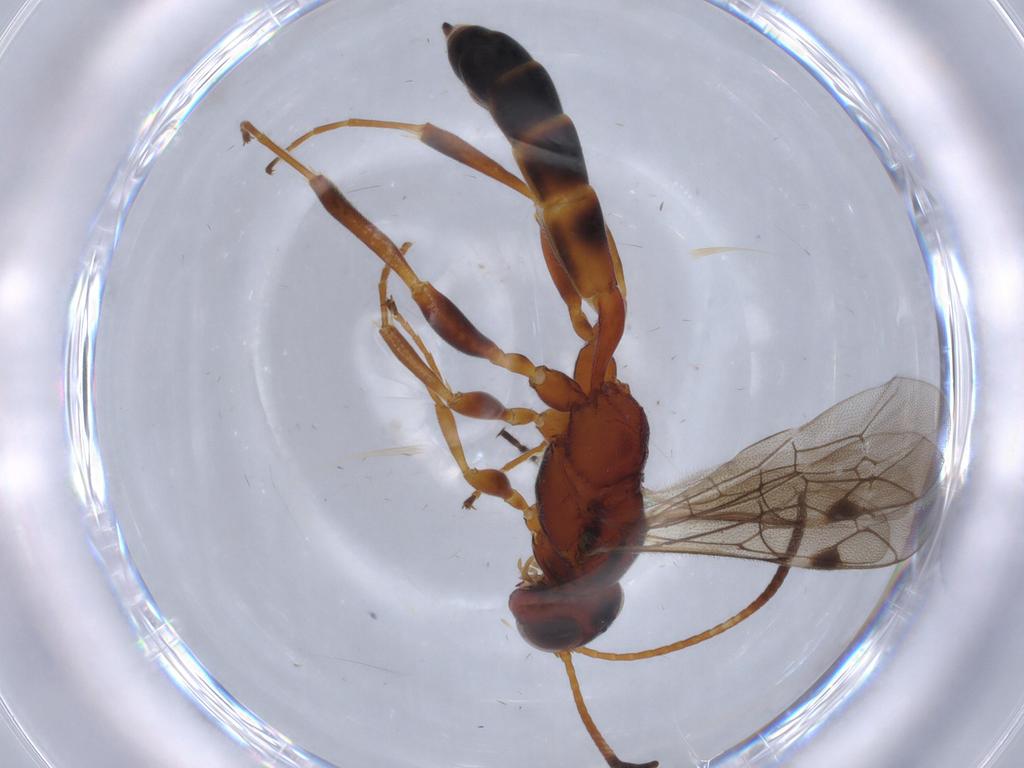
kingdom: Animalia
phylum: Arthropoda
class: Insecta
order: Hymenoptera
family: Ichneumonidae
